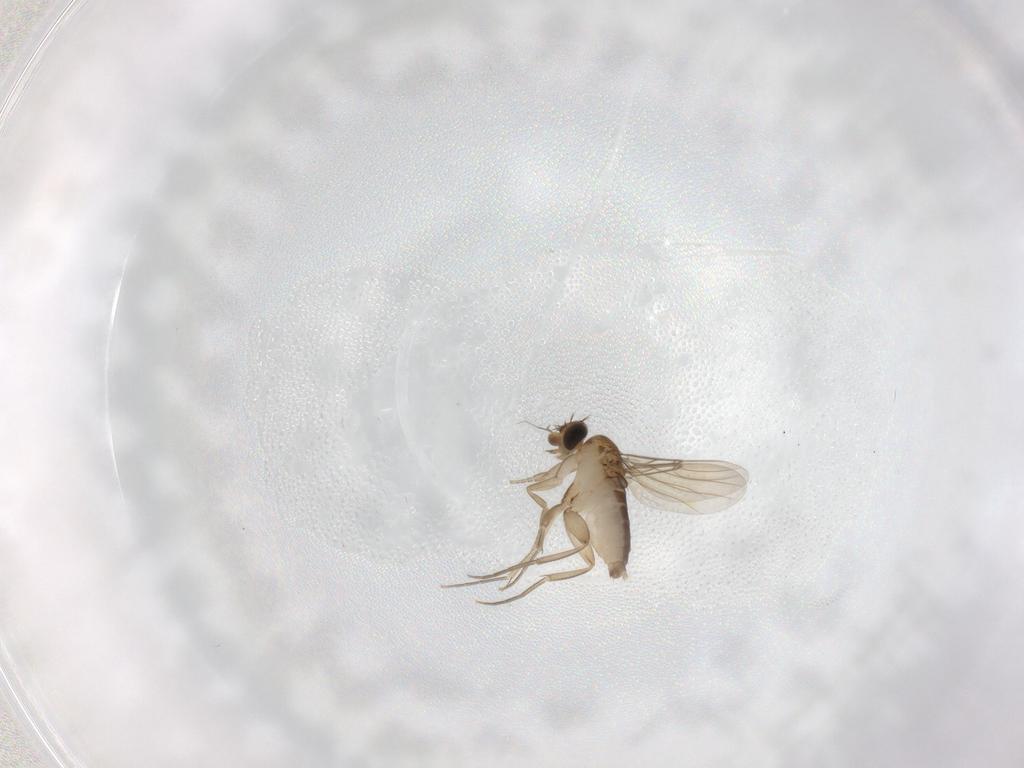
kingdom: Animalia
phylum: Arthropoda
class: Insecta
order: Diptera
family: Phoridae
